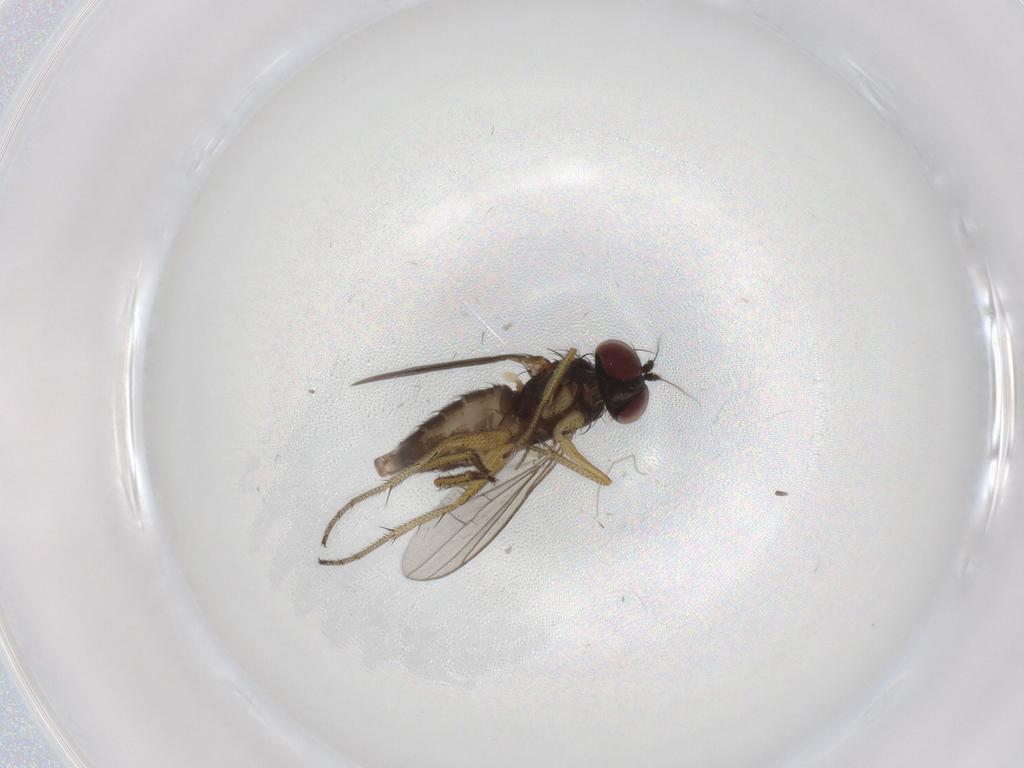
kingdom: Animalia
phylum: Arthropoda
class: Insecta
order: Diptera
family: Dolichopodidae
